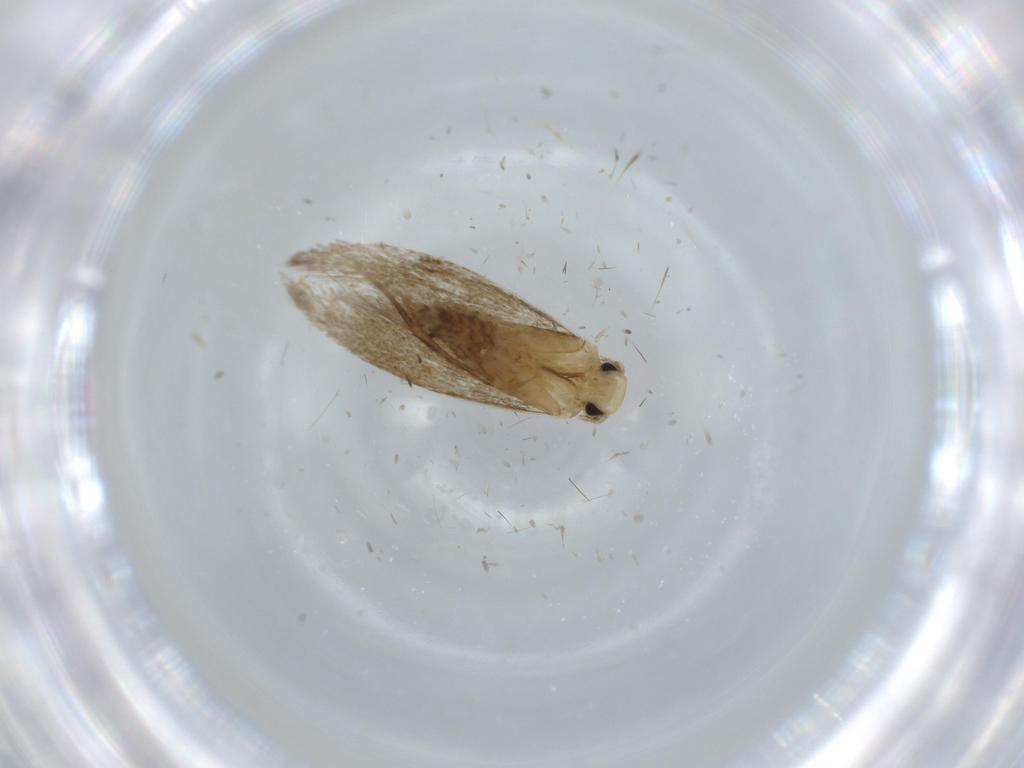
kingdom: Animalia
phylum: Arthropoda
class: Insecta
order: Lepidoptera
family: Tineidae
